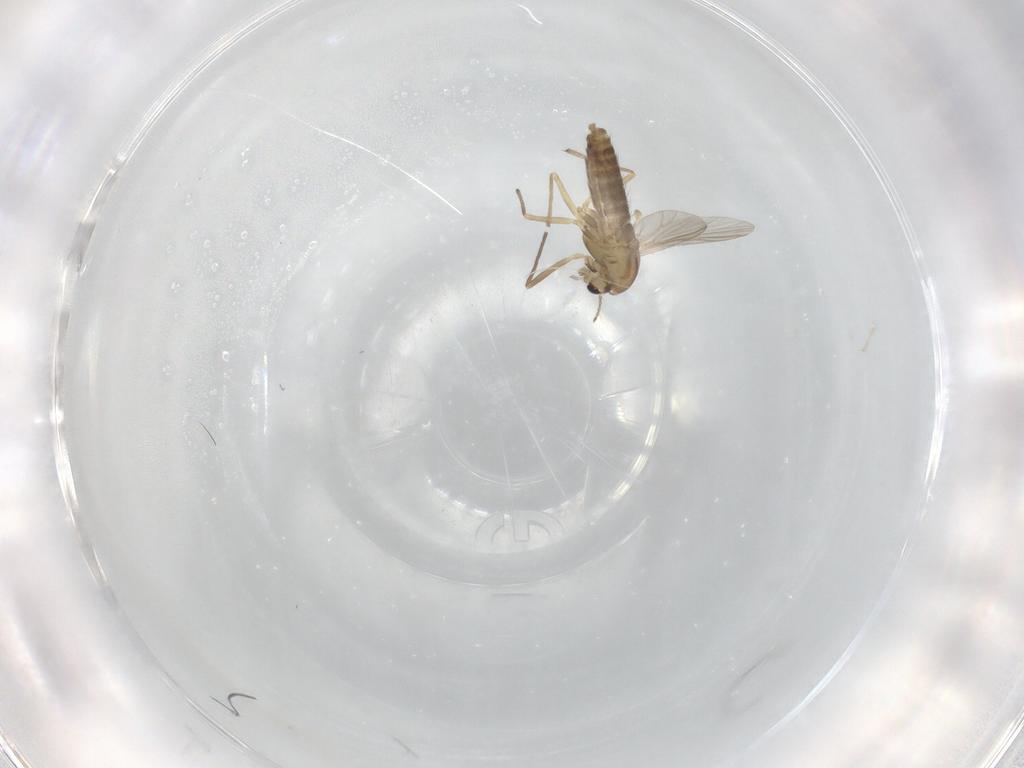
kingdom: Animalia
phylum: Arthropoda
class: Insecta
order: Diptera
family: Chironomidae
